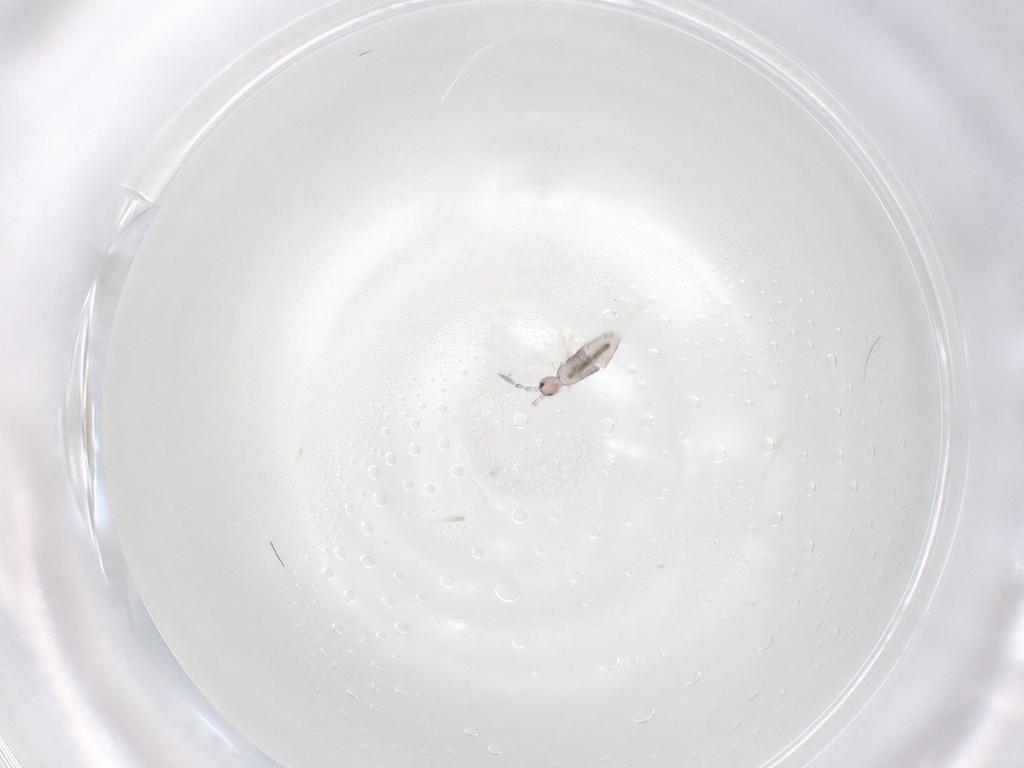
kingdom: Animalia
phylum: Arthropoda
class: Collembola
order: Poduromorpha
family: Hypogastruridae
